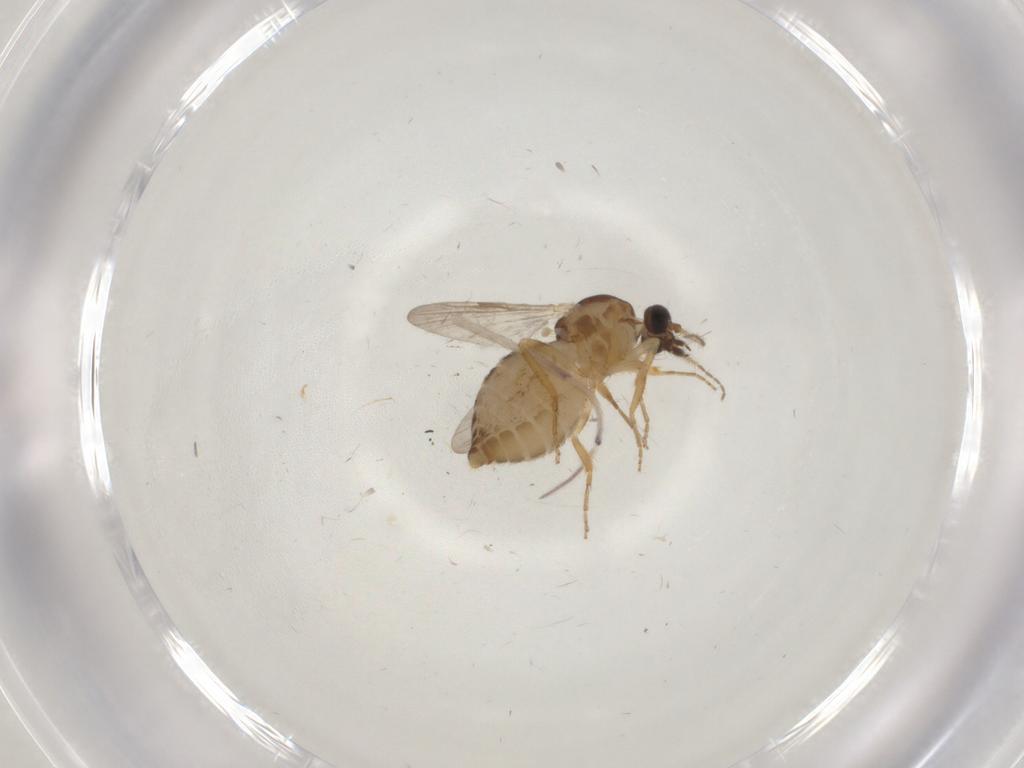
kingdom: Animalia
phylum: Arthropoda
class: Insecta
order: Diptera
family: Ceratopogonidae
